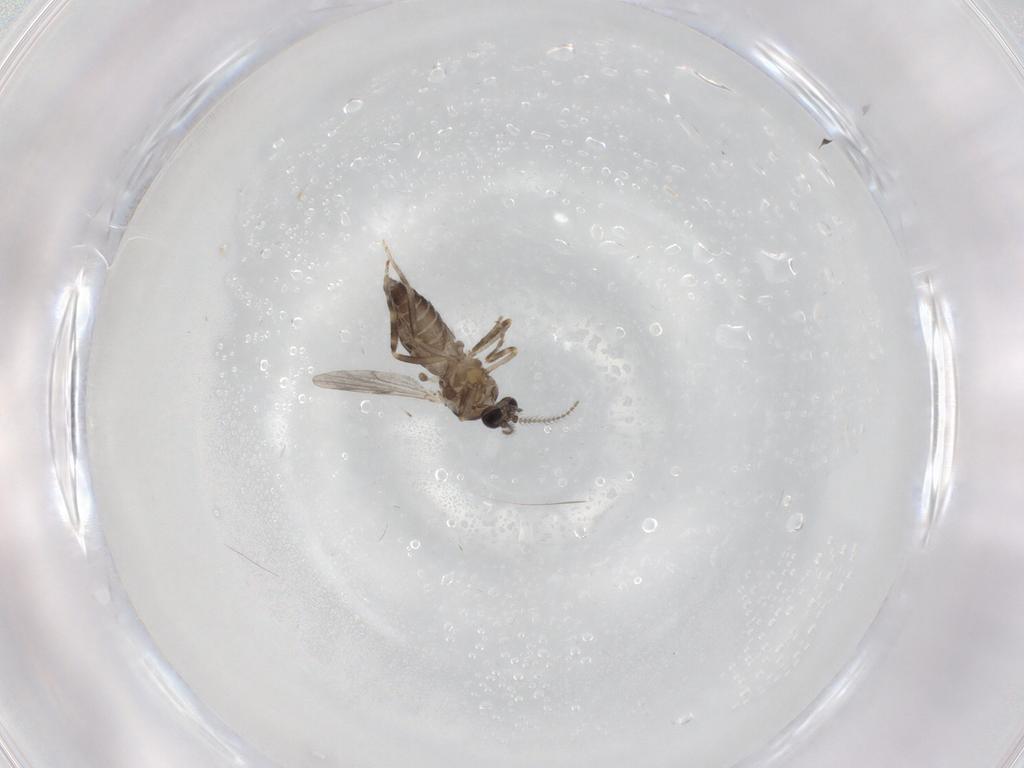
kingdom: Animalia
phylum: Arthropoda
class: Insecta
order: Diptera
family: Ceratopogonidae
